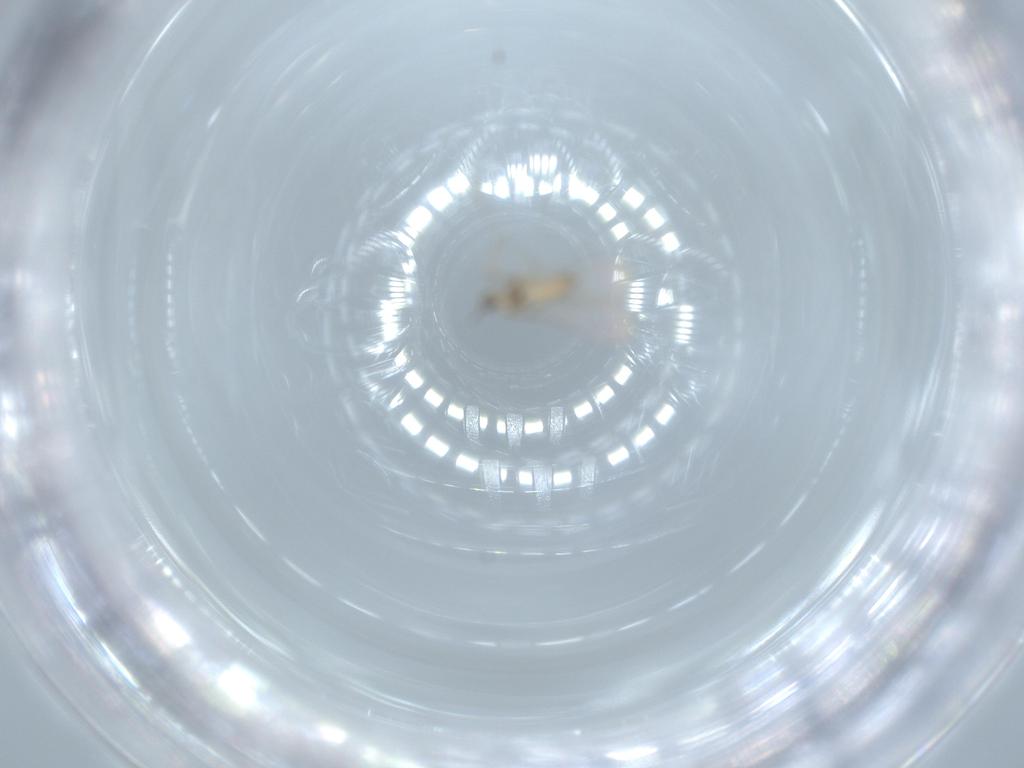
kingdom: Animalia
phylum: Arthropoda
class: Insecta
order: Diptera
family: Cecidomyiidae
